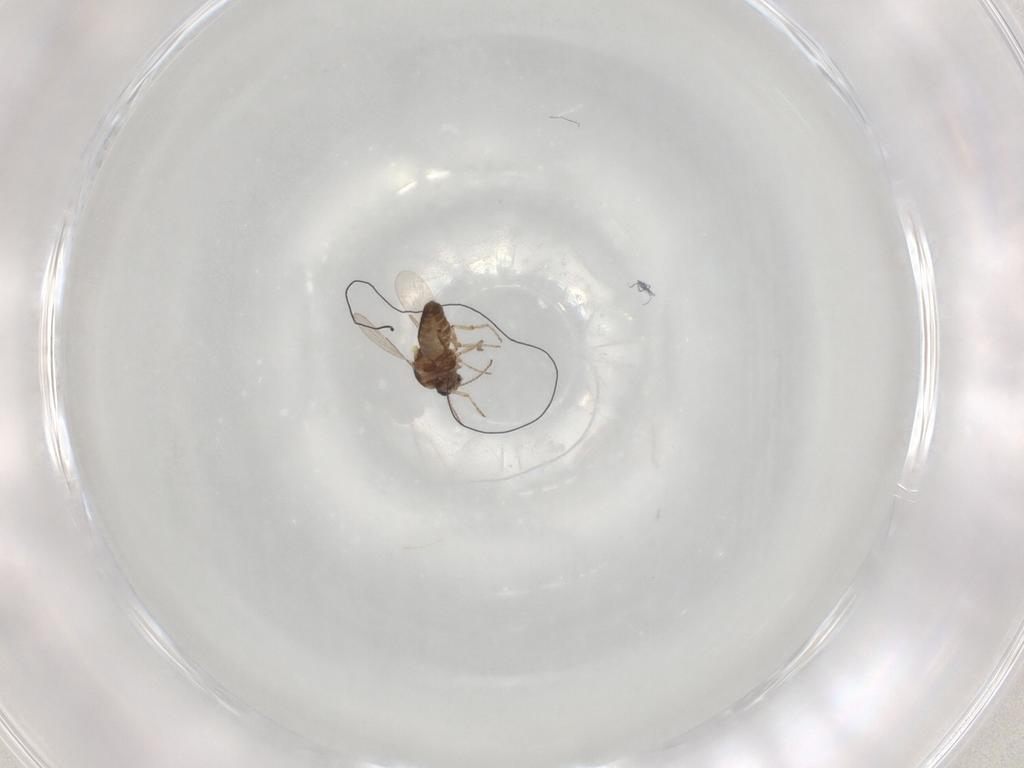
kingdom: Animalia
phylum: Arthropoda
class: Insecta
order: Diptera
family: Ceratopogonidae
